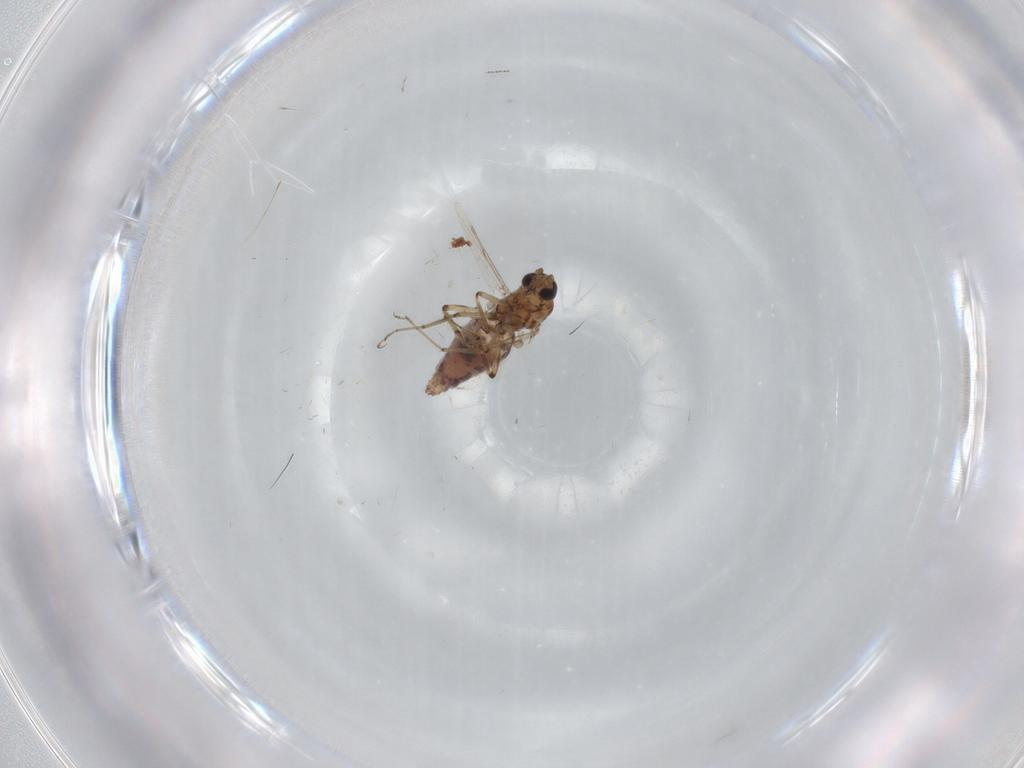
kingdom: Animalia
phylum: Arthropoda
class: Insecta
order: Diptera
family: Ceratopogonidae
